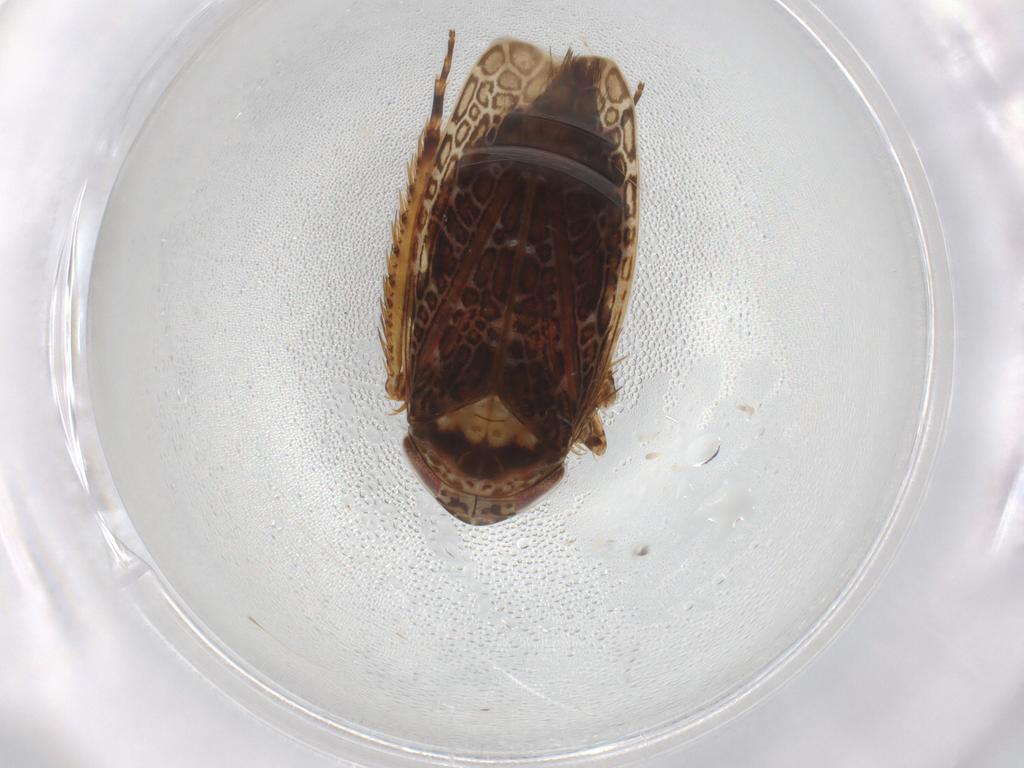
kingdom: Animalia
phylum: Arthropoda
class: Insecta
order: Hemiptera
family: Cicadellidae
